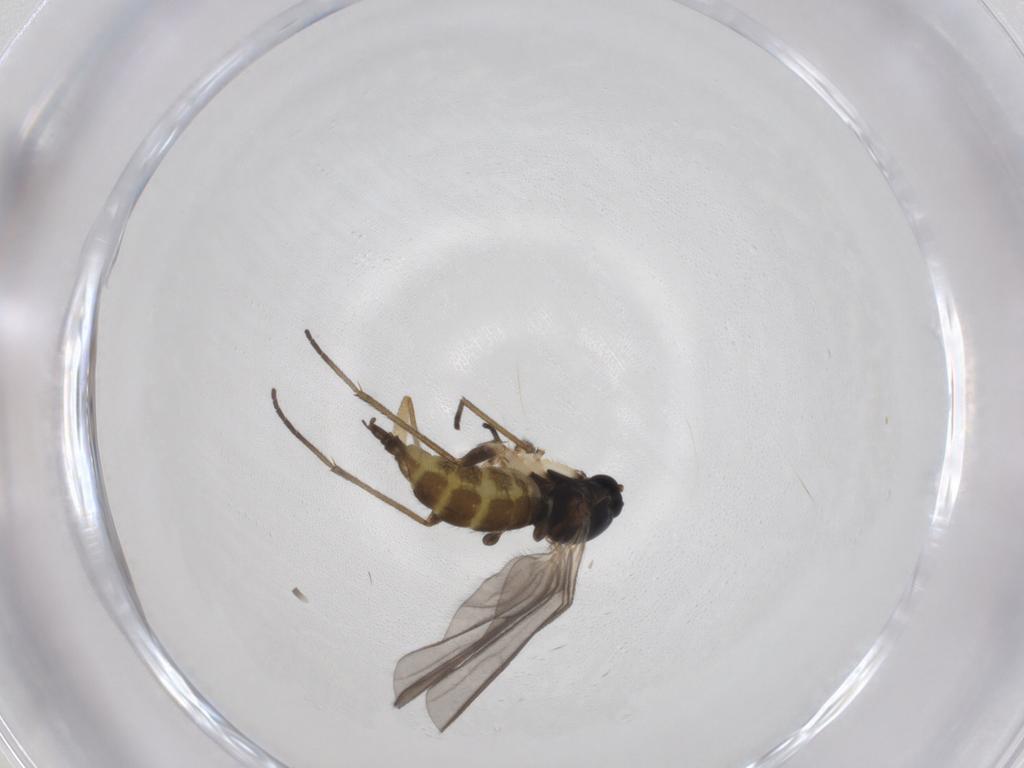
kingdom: Animalia
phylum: Arthropoda
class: Insecta
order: Diptera
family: Sciaridae
